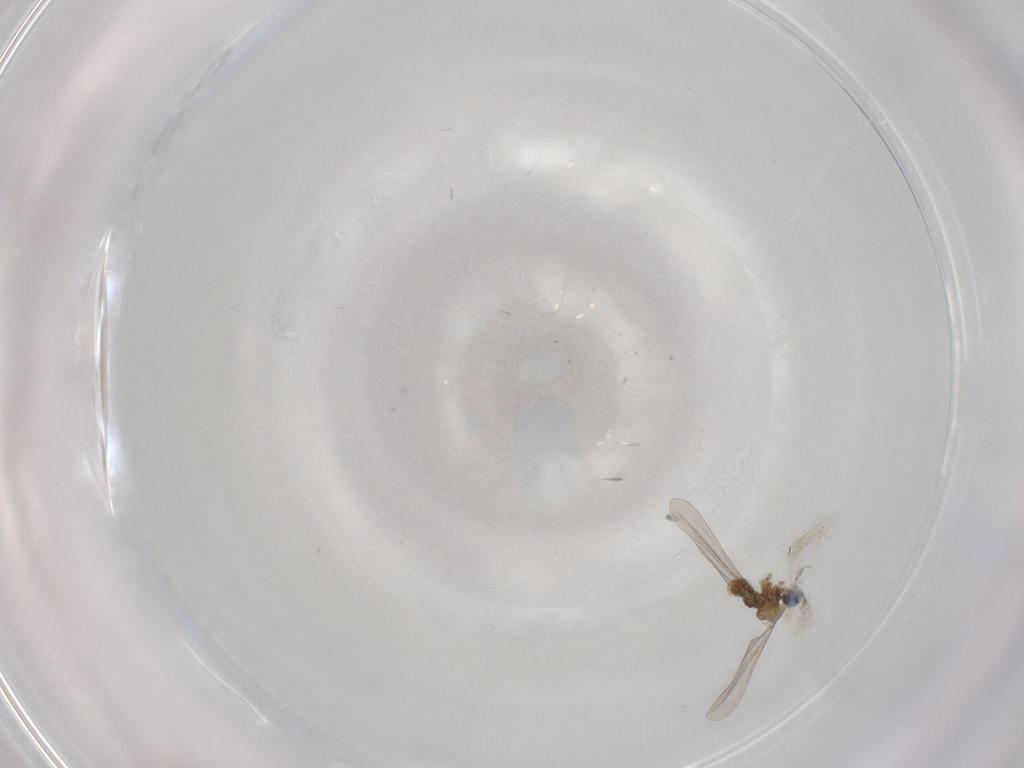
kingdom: Animalia
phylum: Arthropoda
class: Insecta
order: Diptera
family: Cecidomyiidae
